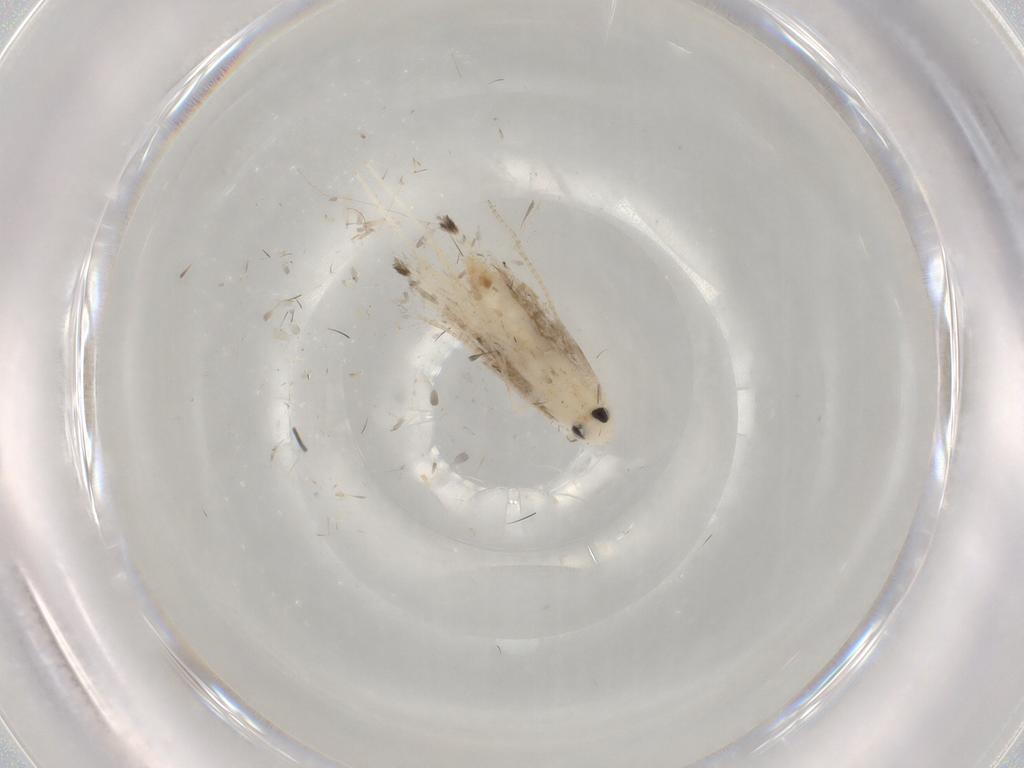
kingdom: Animalia
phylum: Arthropoda
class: Insecta
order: Lepidoptera
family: Gracillariidae
